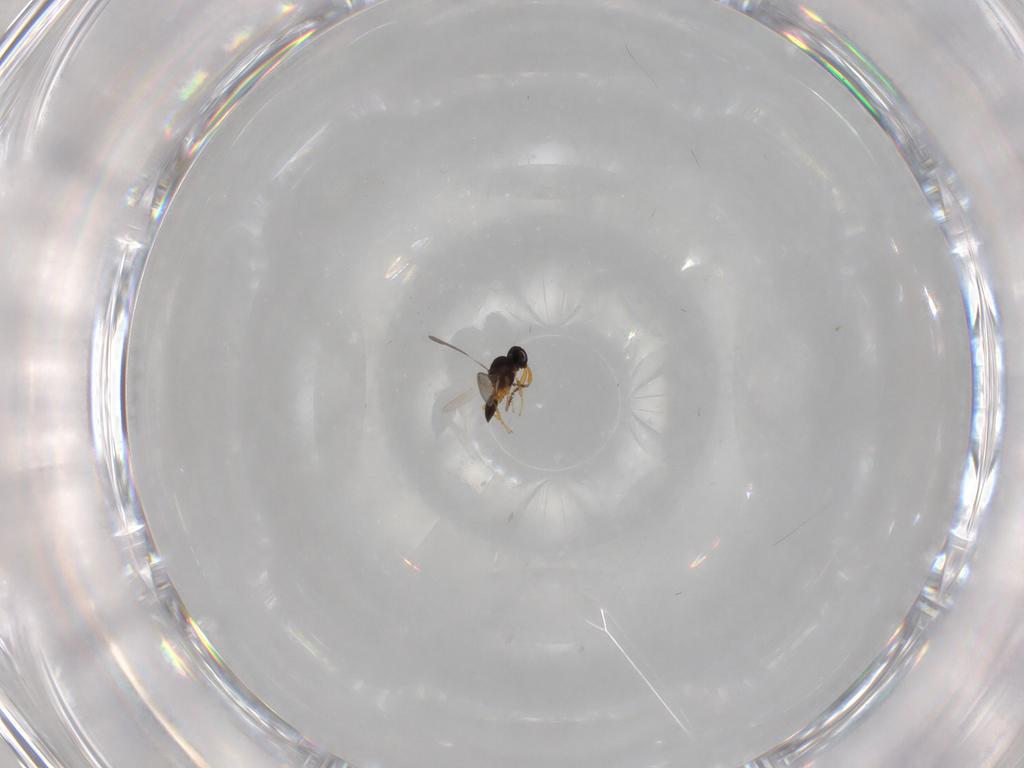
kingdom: Animalia
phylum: Arthropoda
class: Insecta
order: Hymenoptera
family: Platygastridae
